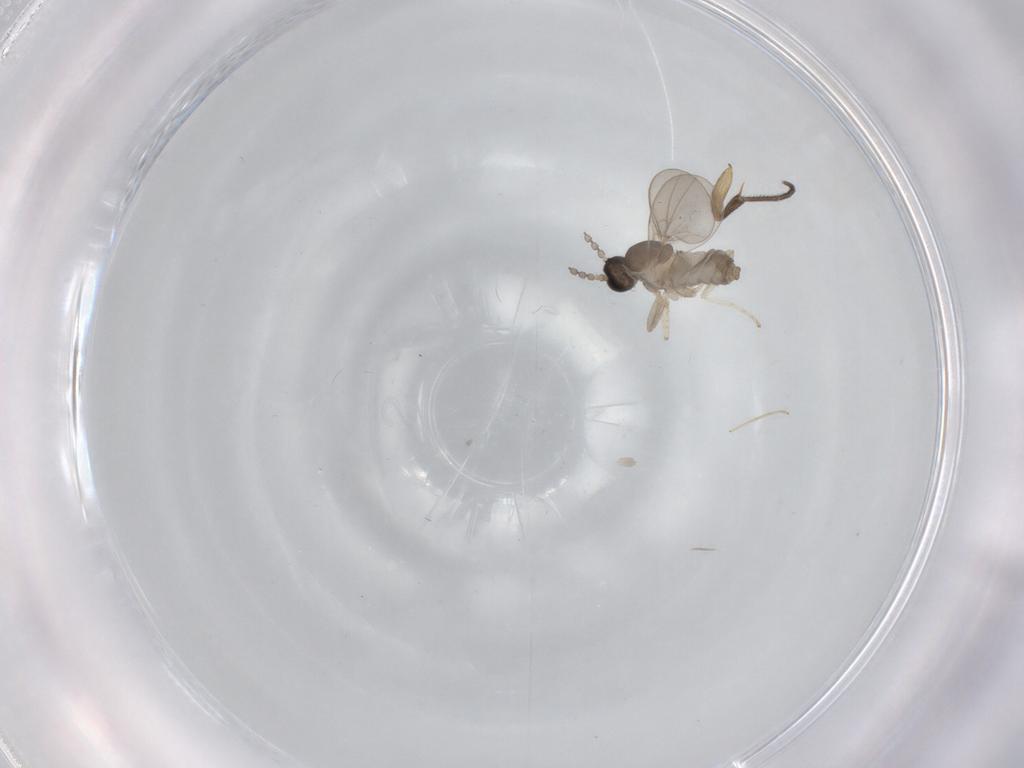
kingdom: Animalia
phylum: Arthropoda
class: Insecta
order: Diptera
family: Cecidomyiidae
